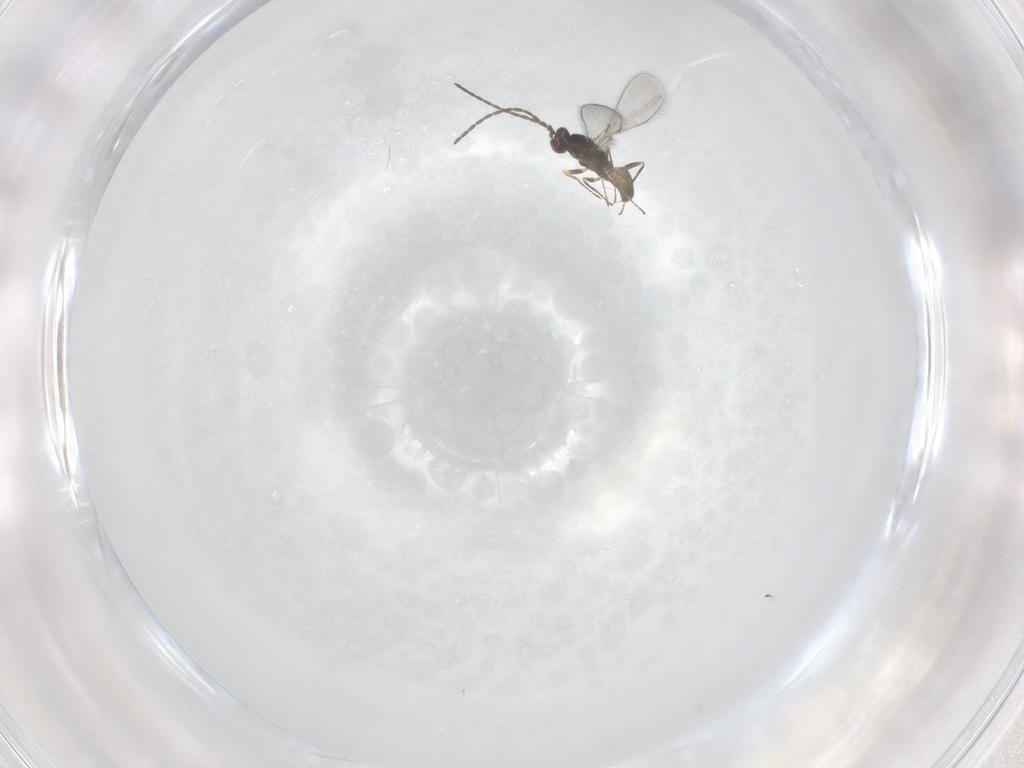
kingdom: Animalia
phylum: Arthropoda
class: Insecta
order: Hymenoptera
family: Mymaridae
